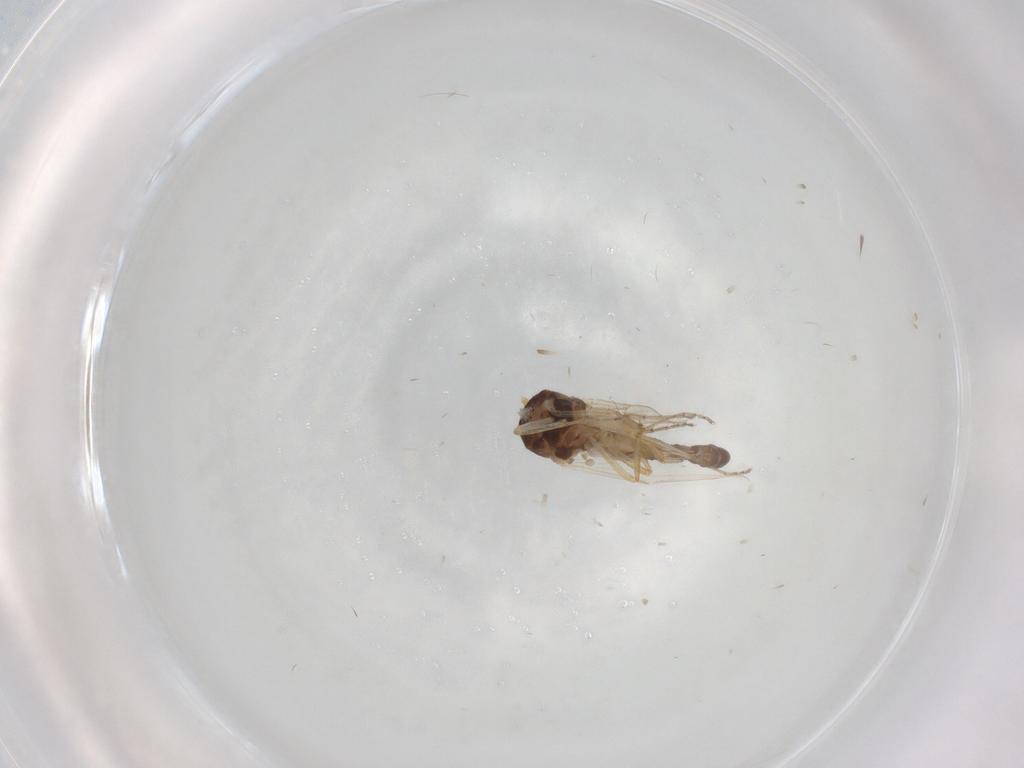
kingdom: Animalia
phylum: Arthropoda
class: Insecta
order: Diptera
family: Ceratopogonidae
